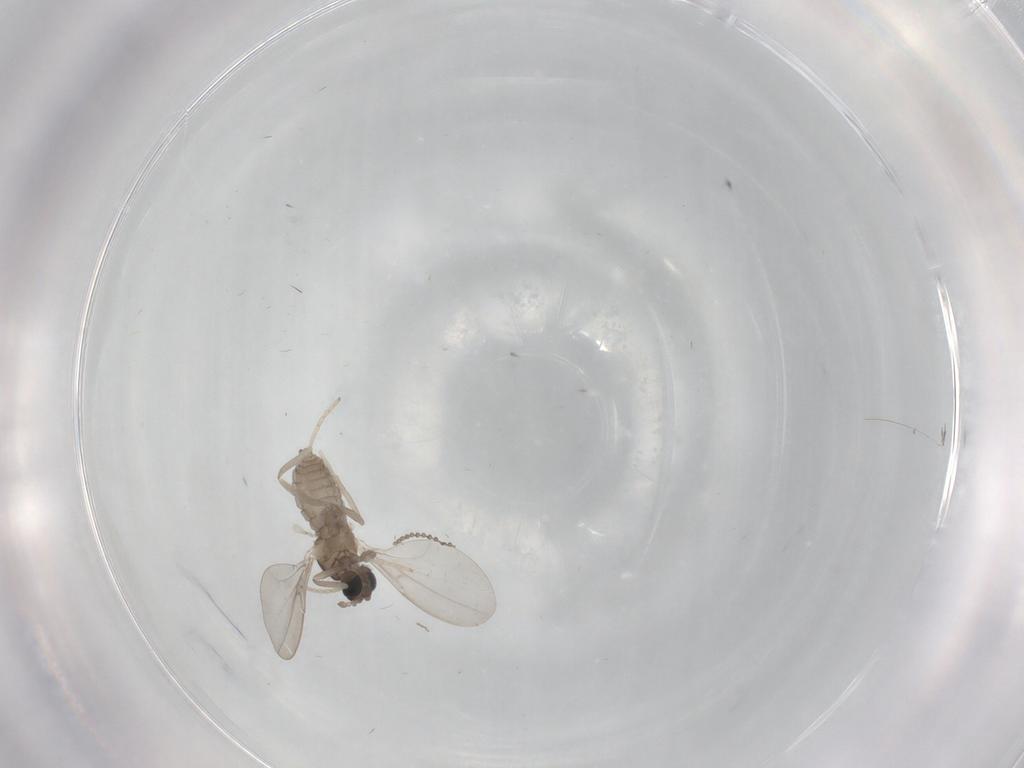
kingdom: Animalia
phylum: Arthropoda
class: Insecta
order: Diptera
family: Cecidomyiidae
